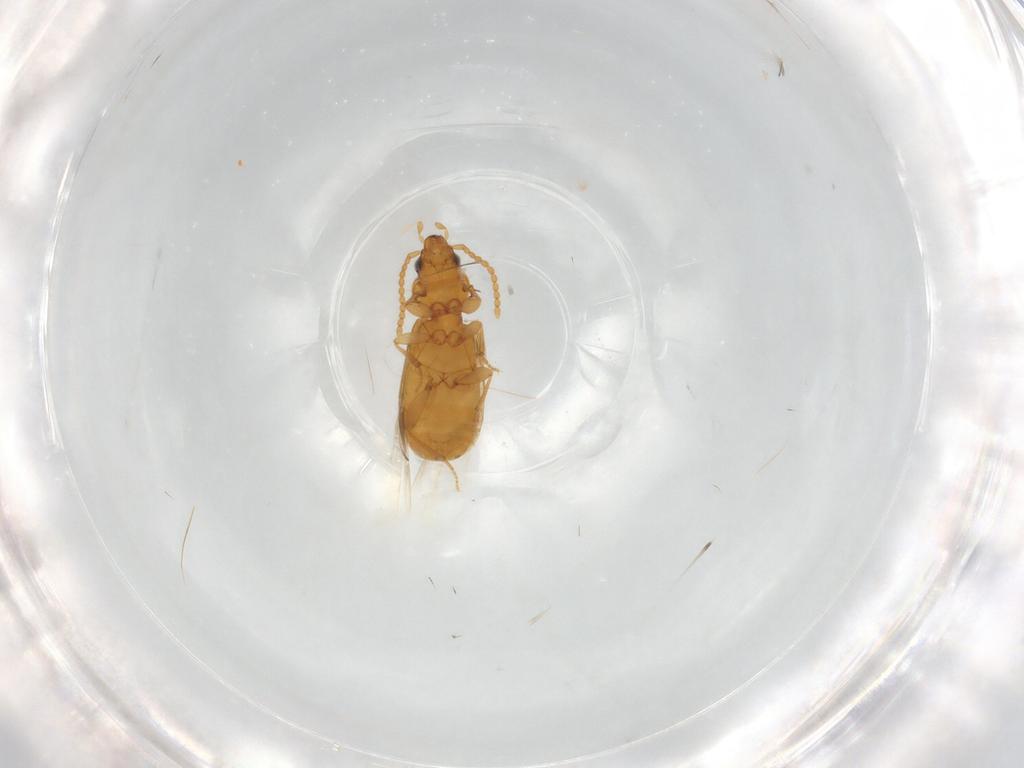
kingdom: Animalia
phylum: Arthropoda
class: Insecta
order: Coleoptera
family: Carabidae
